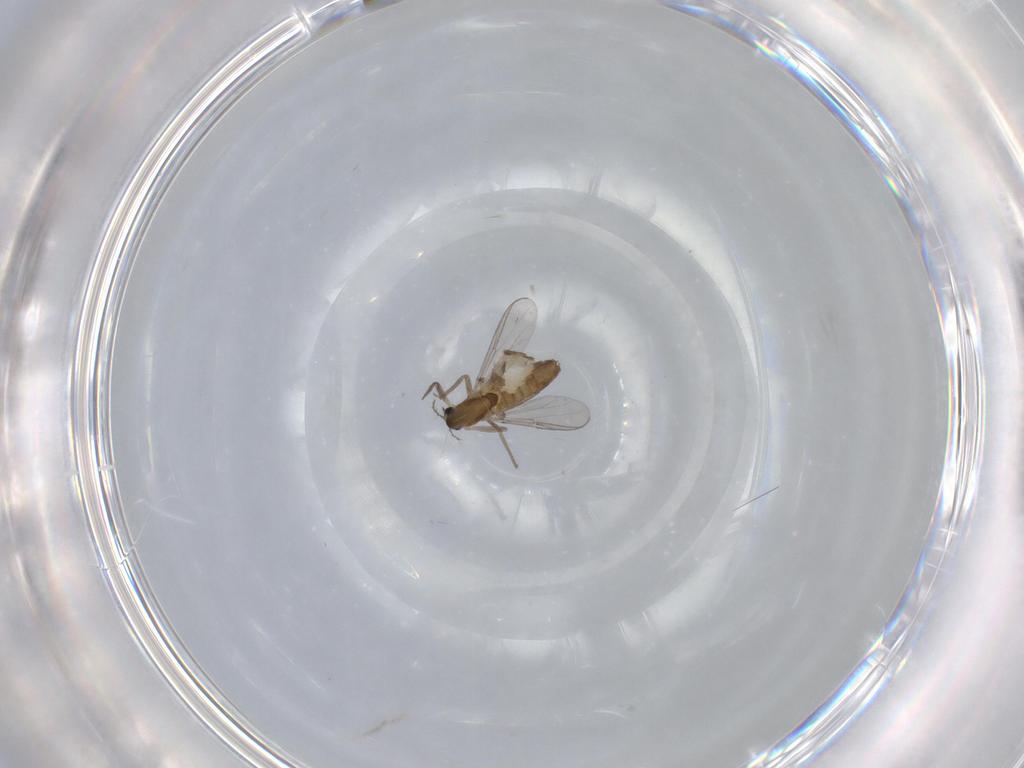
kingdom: Animalia
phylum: Arthropoda
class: Insecta
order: Diptera
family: Chironomidae
